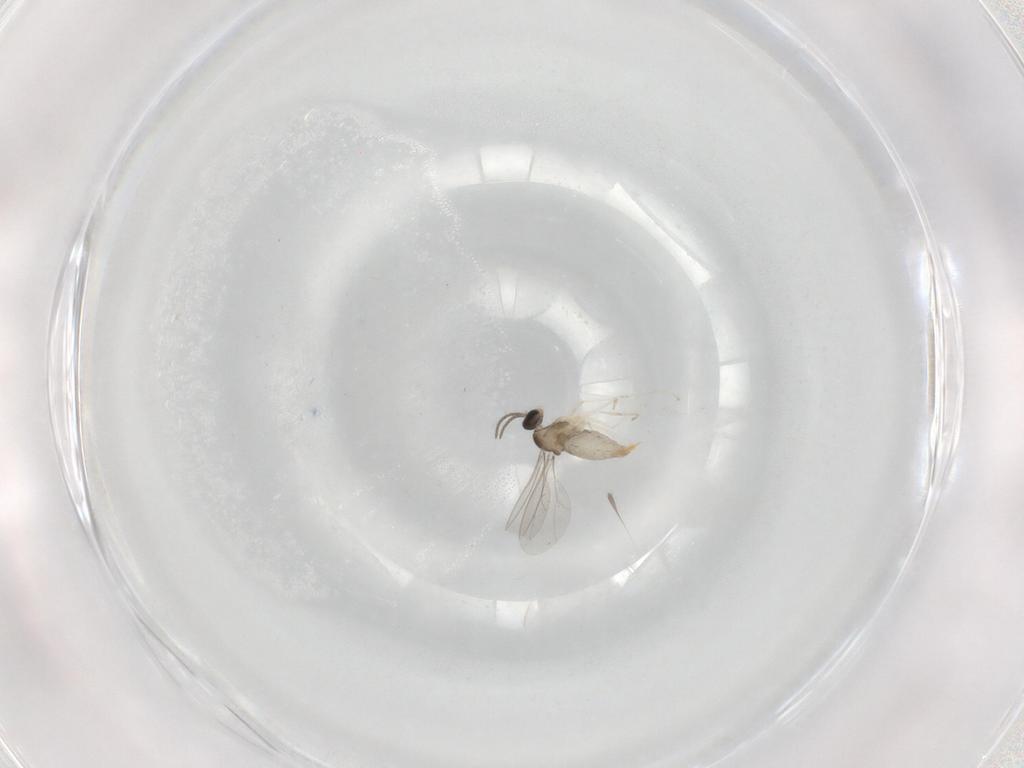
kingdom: Animalia
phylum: Arthropoda
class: Insecta
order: Diptera
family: Cecidomyiidae
